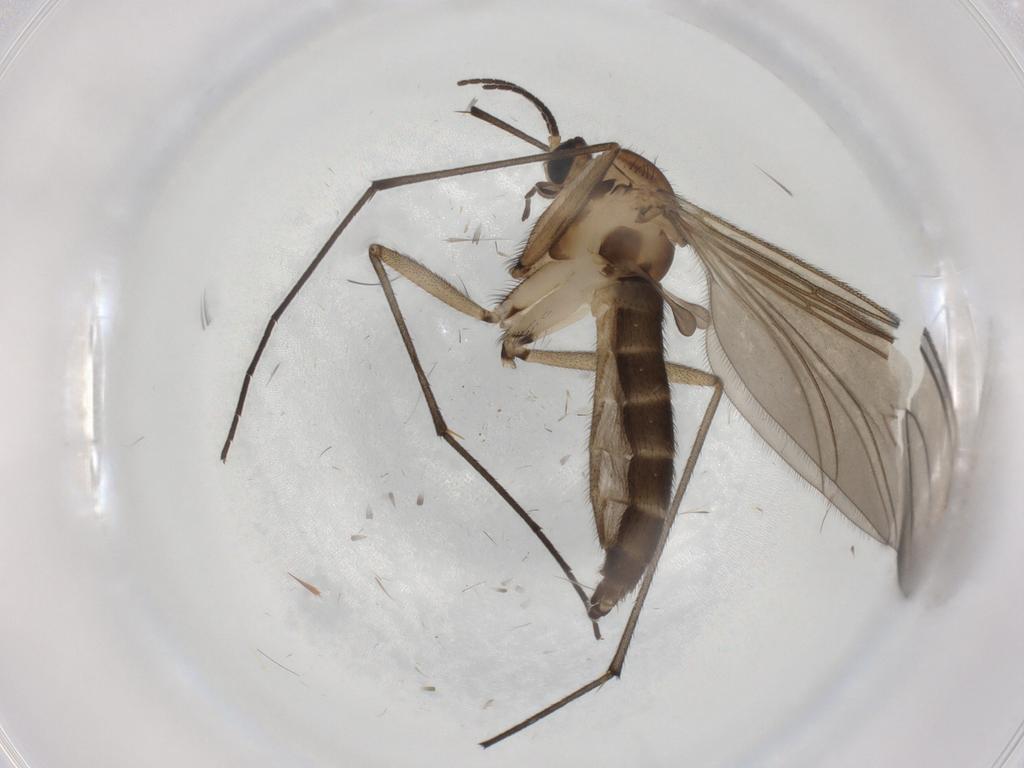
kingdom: Animalia
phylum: Arthropoda
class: Insecta
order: Diptera
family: Sciaridae
